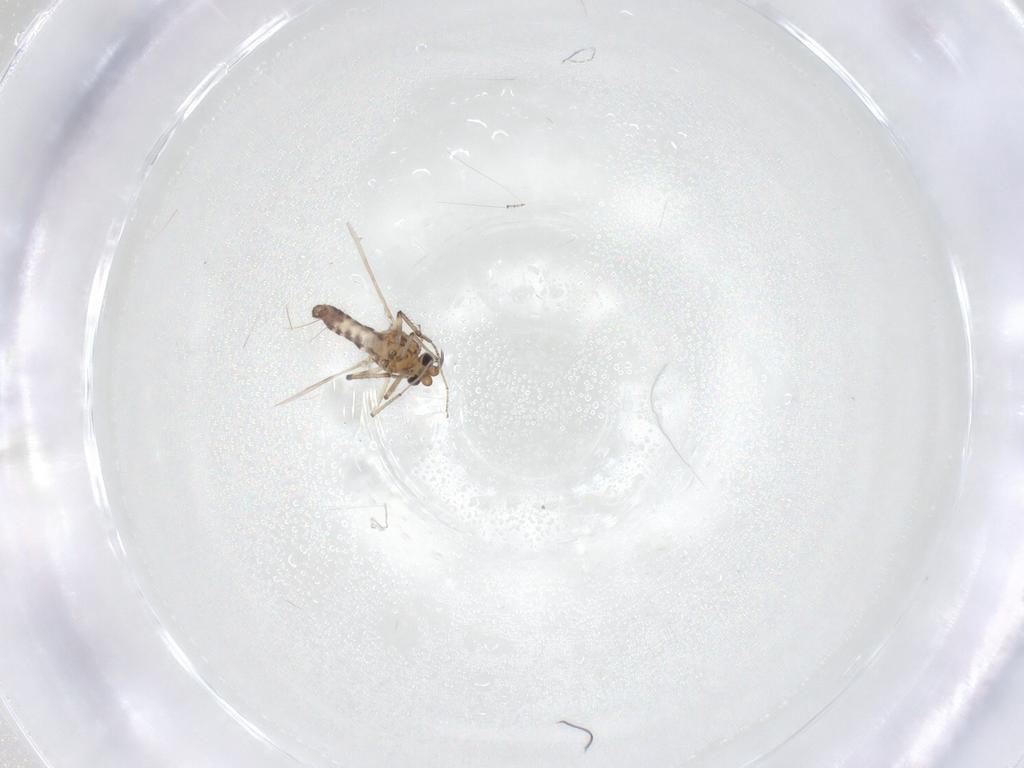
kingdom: Animalia
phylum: Arthropoda
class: Insecta
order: Diptera
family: Ceratopogonidae
